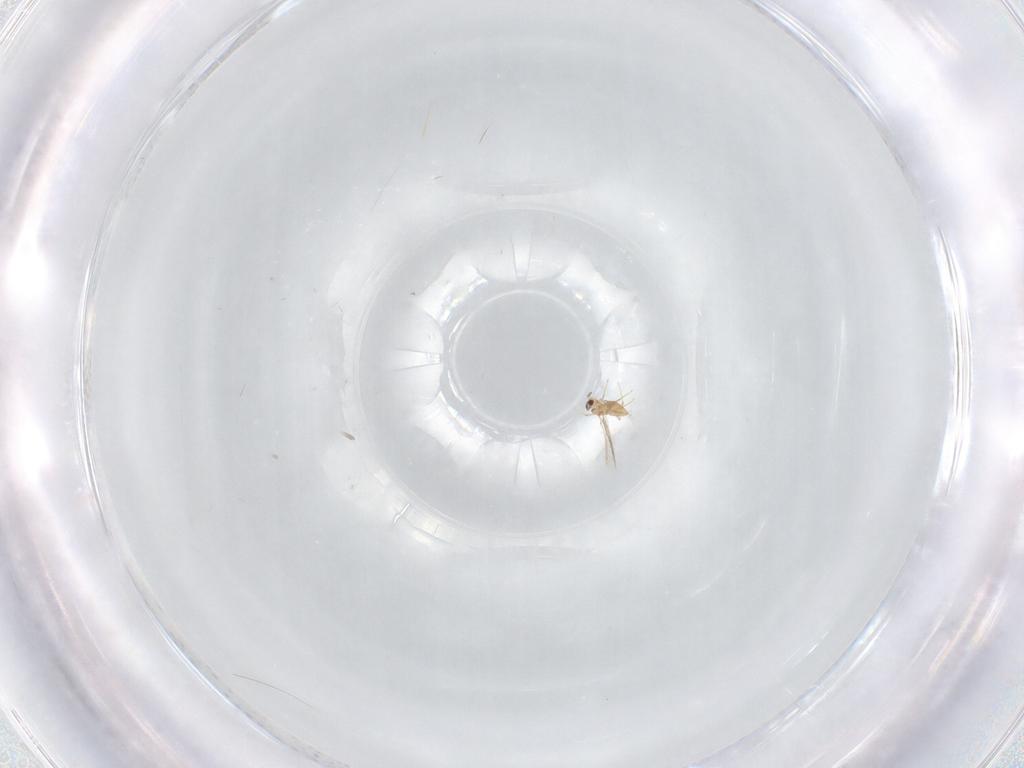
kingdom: Animalia
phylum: Arthropoda
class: Insecta
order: Hymenoptera
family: Mymaridae
